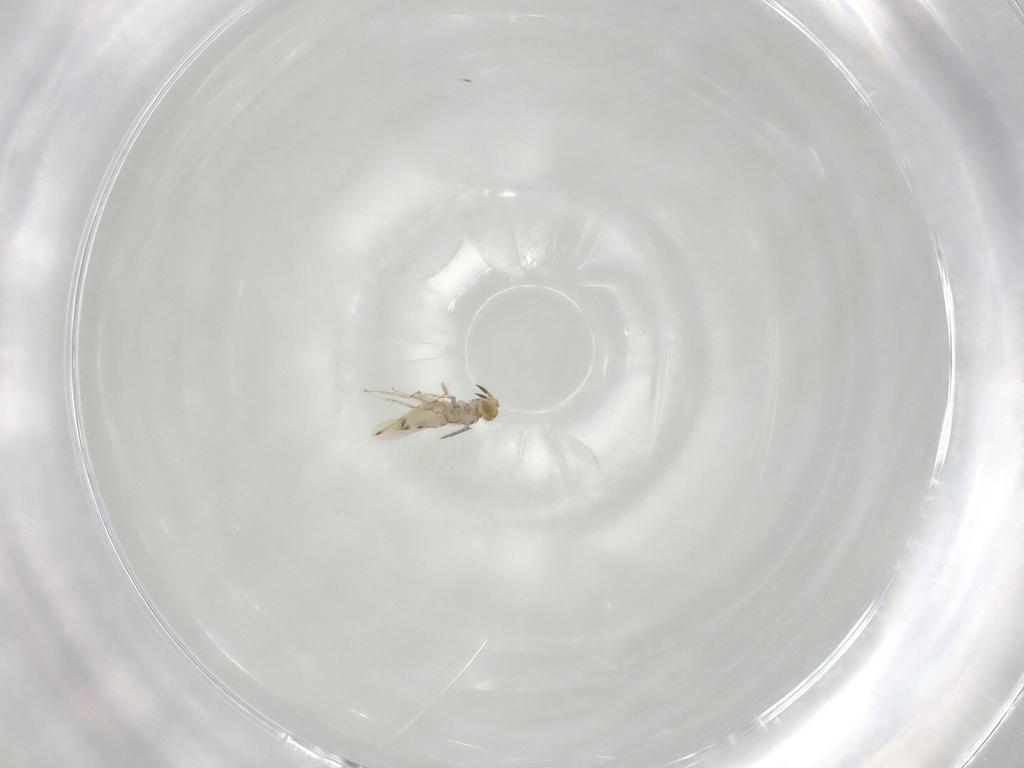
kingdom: Animalia
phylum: Arthropoda
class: Insecta
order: Hymenoptera
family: Aphelinidae
